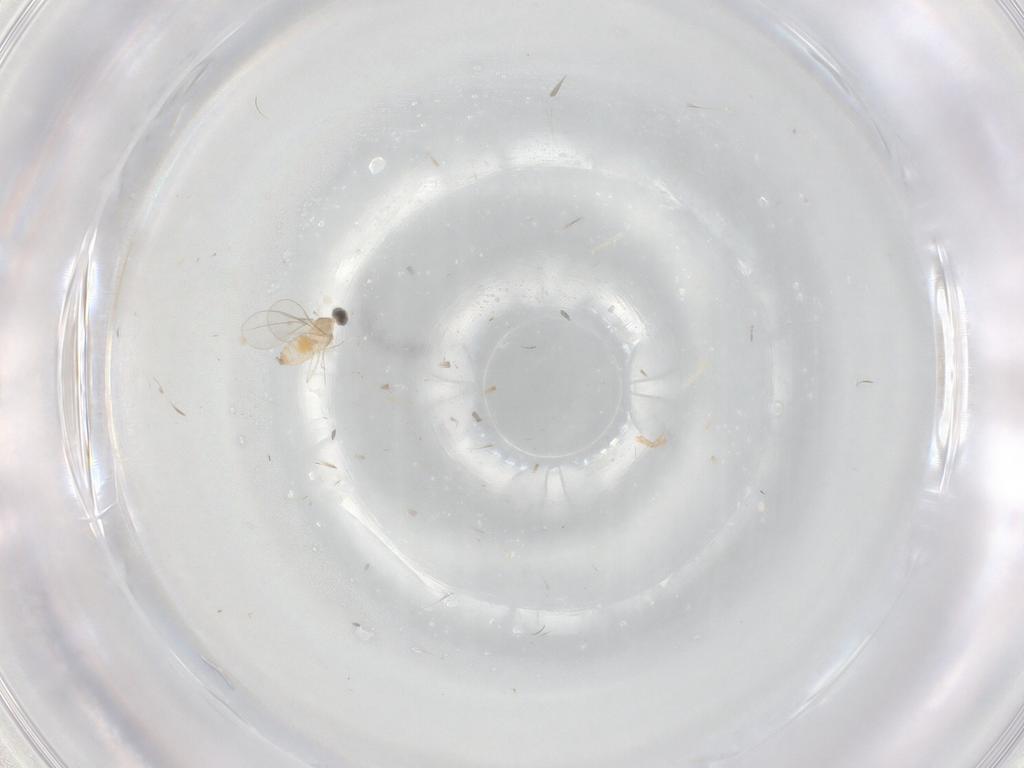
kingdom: Animalia
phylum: Arthropoda
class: Insecta
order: Diptera
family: Cecidomyiidae
